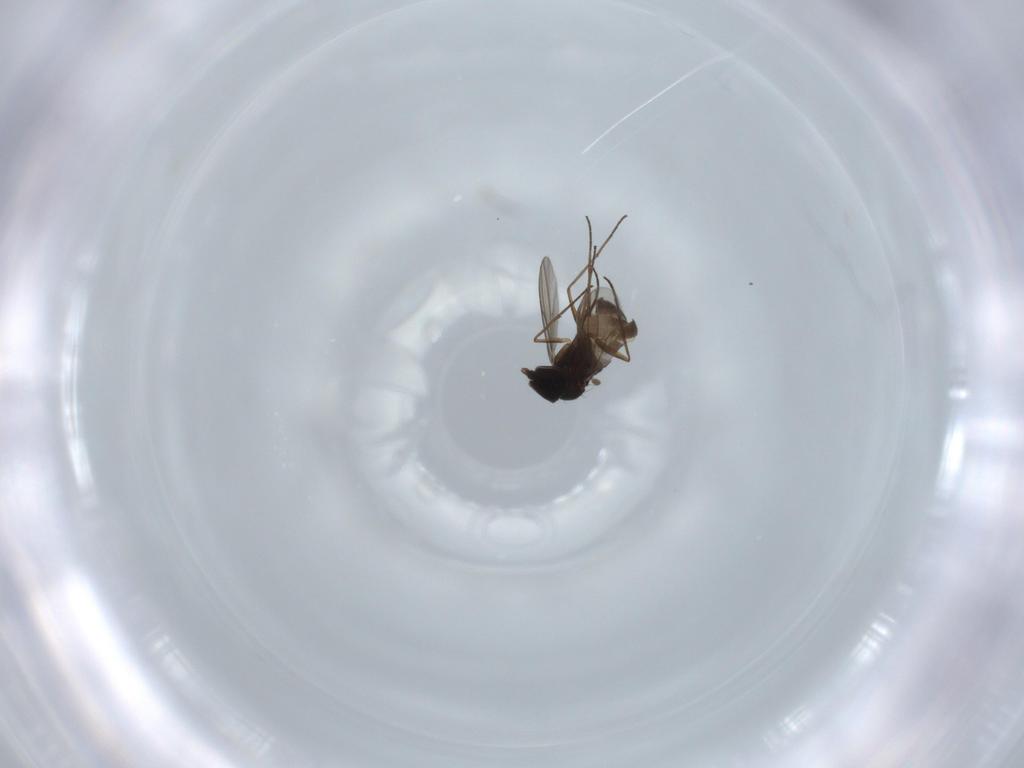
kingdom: Animalia
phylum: Arthropoda
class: Insecta
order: Diptera
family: Dolichopodidae
